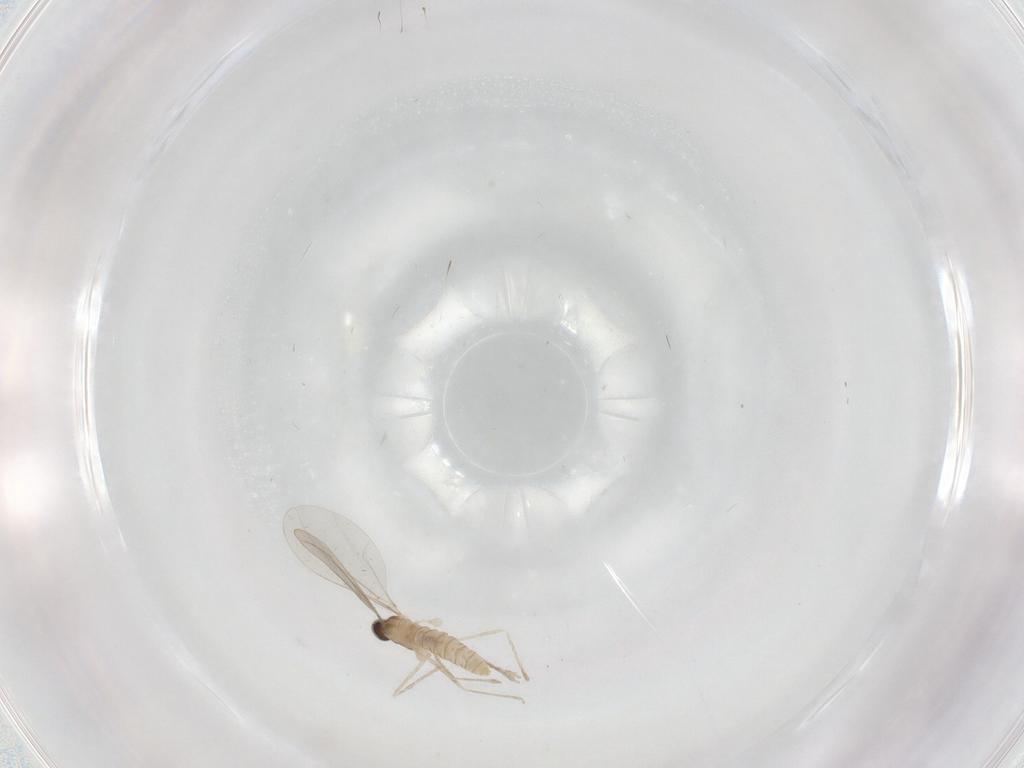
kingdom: Animalia
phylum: Arthropoda
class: Insecta
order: Diptera
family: Cecidomyiidae
